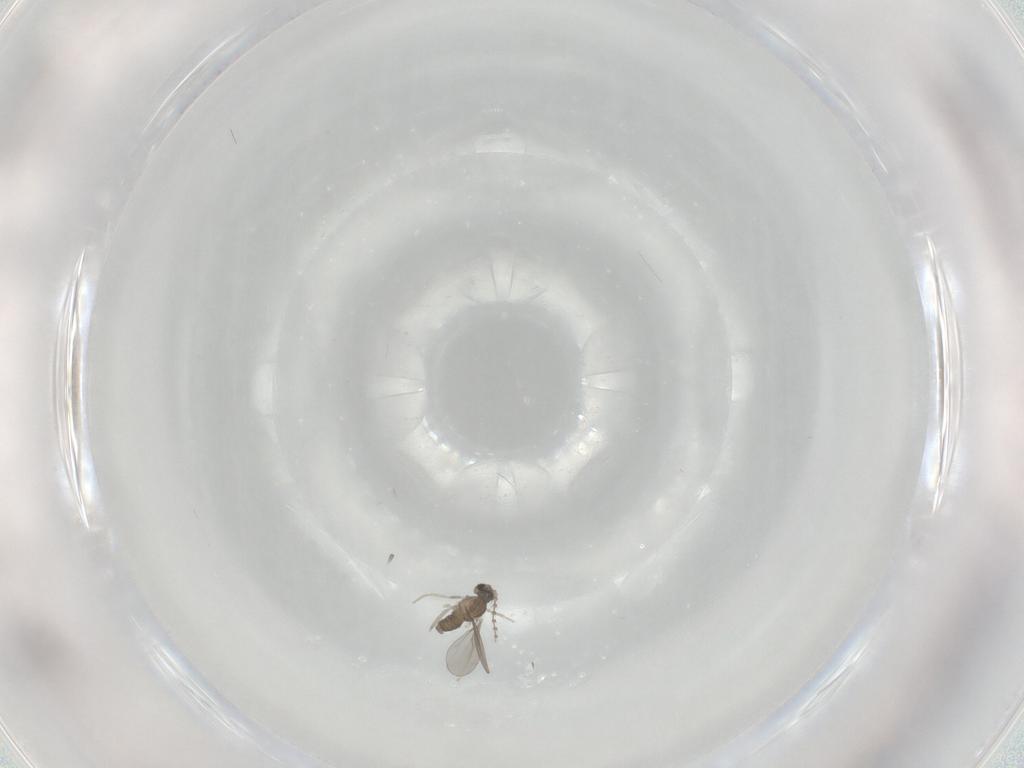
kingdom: Animalia
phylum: Arthropoda
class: Insecta
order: Diptera
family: Cecidomyiidae
